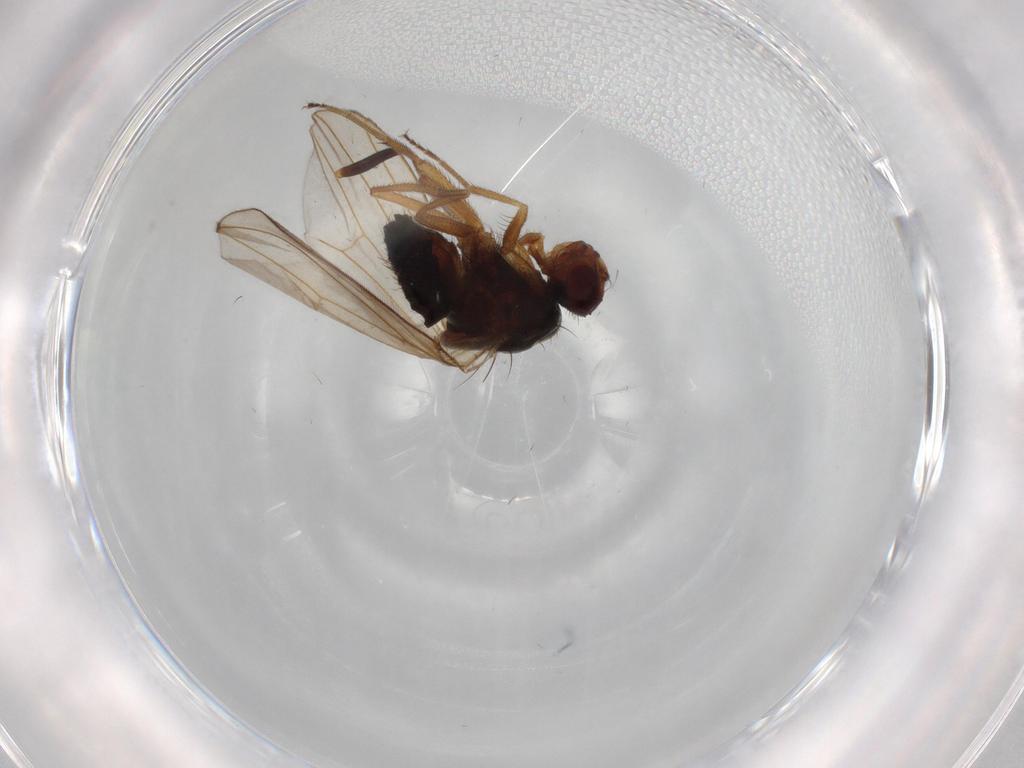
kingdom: Animalia
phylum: Arthropoda
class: Insecta
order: Diptera
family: Drosophilidae
